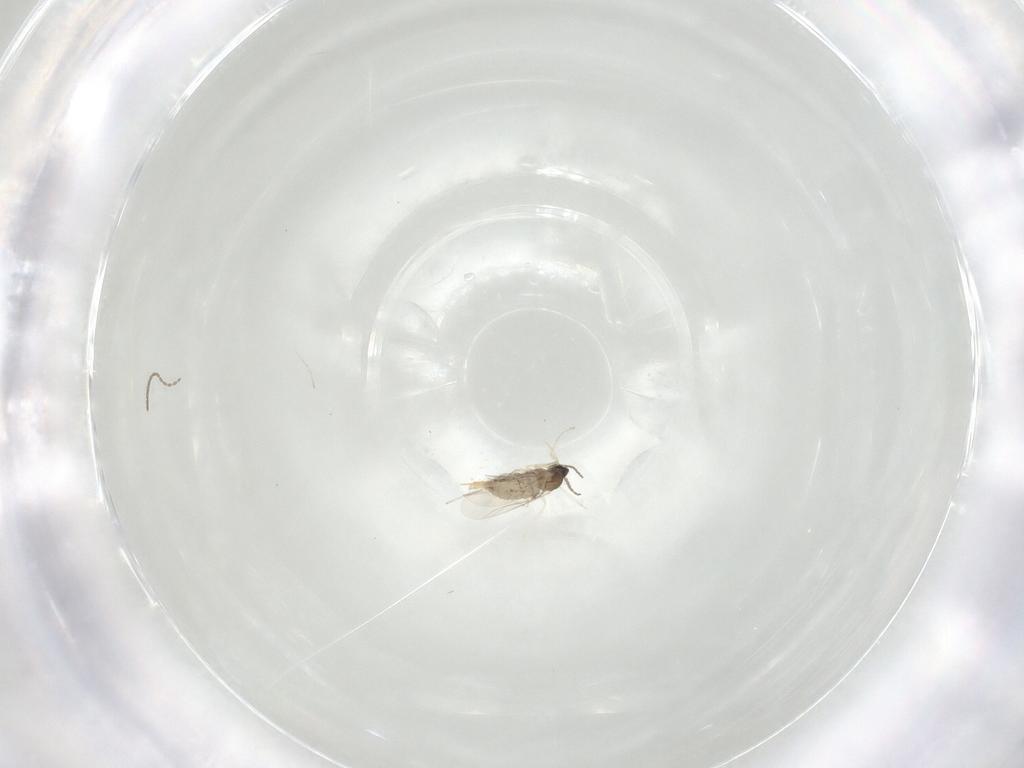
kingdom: Animalia
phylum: Arthropoda
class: Insecta
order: Diptera
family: Cecidomyiidae
